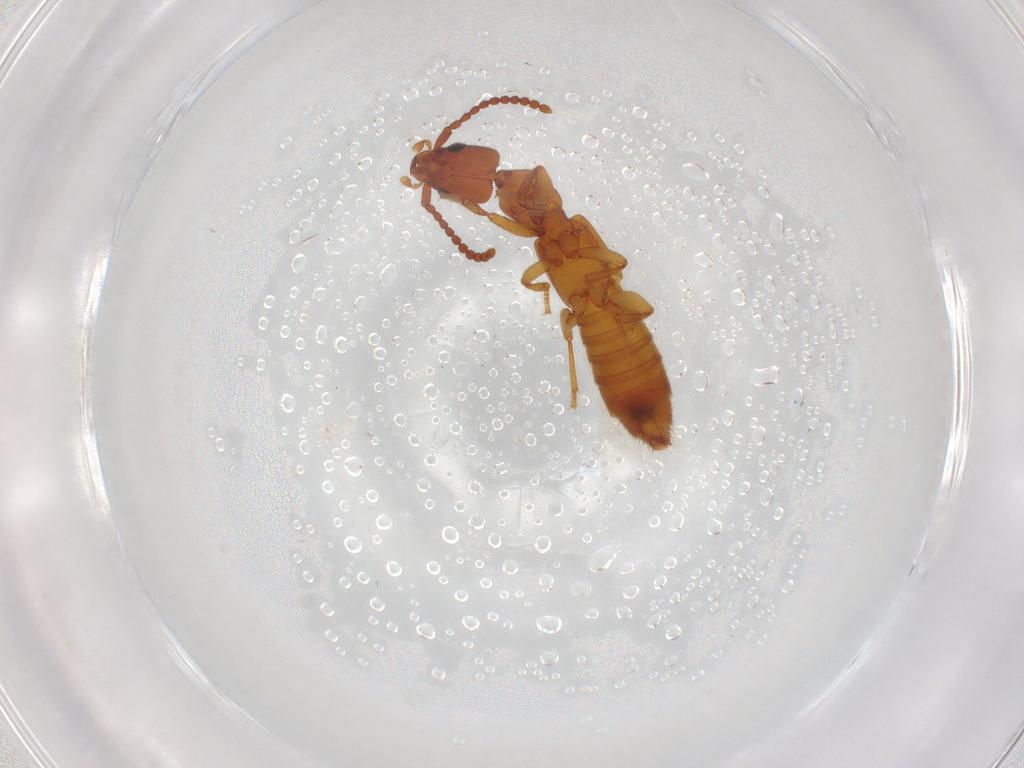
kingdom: Animalia
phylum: Arthropoda
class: Insecta
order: Coleoptera
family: Staphylinidae
